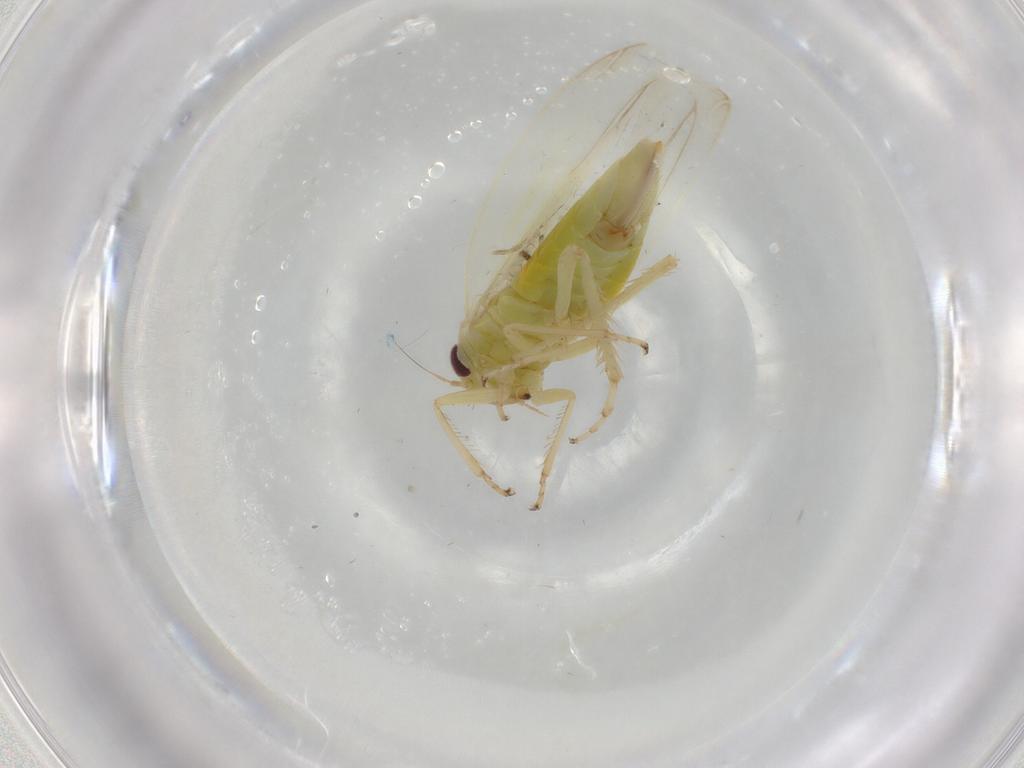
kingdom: Animalia
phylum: Arthropoda
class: Insecta
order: Hemiptera
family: Cicadellidae
